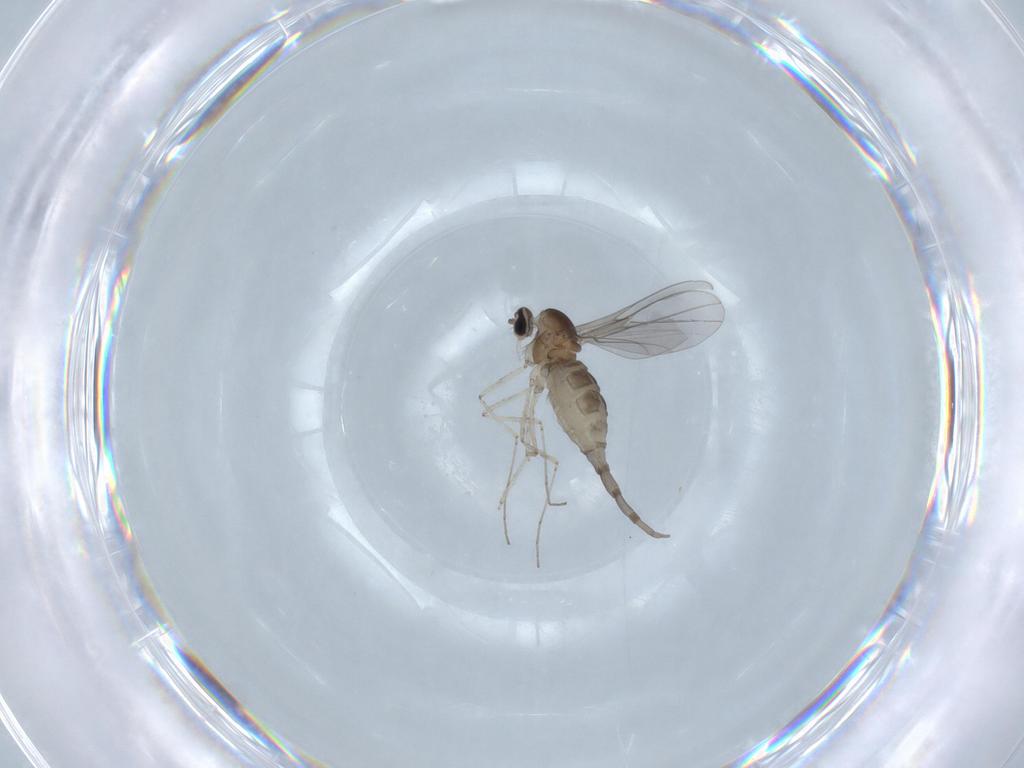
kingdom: Animalia
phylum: Arthropoda
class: Insecta
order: Diptera
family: Cecidomyiidae
